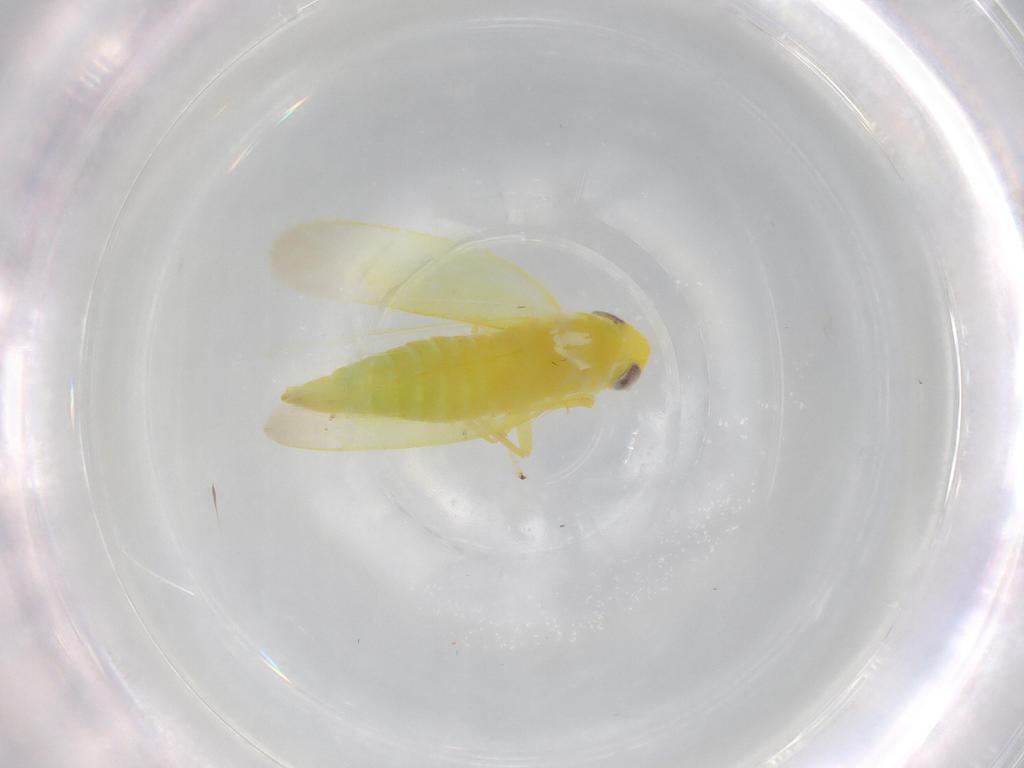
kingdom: Animalia
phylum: Arthropoda
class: Insecta
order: Hemiptera
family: Cicadellidae
